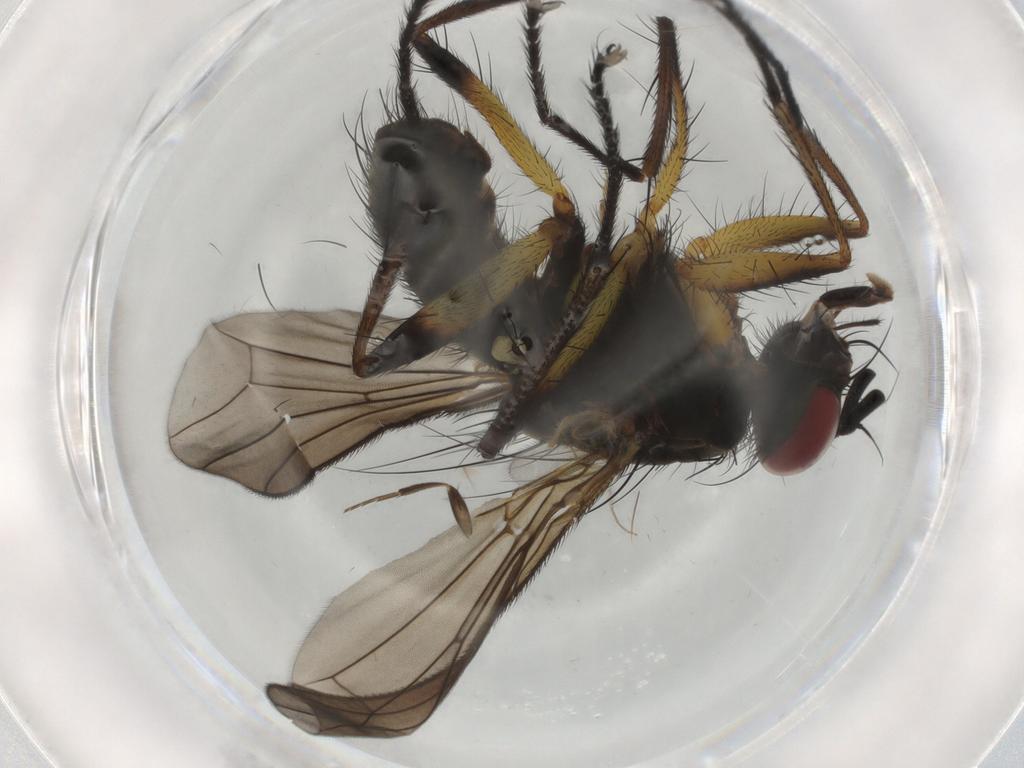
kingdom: Animalia
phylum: Arthropoda
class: Insecta
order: Diptera
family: Muscidae
